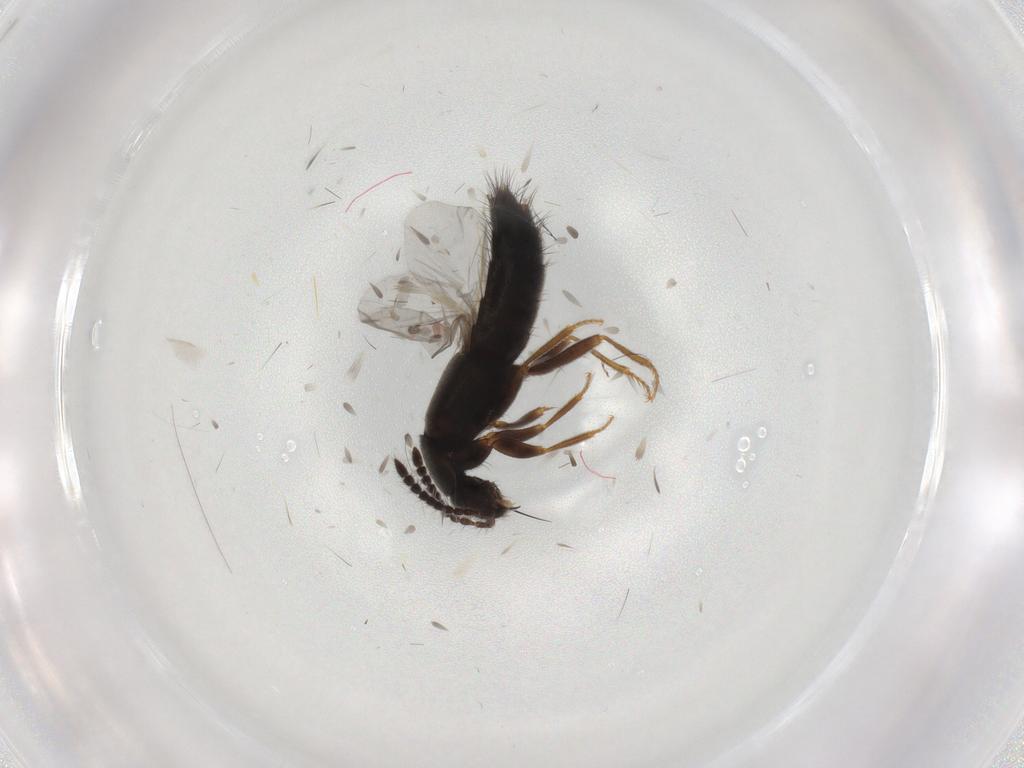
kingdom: Animalia
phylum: Arthropoda
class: Insecta
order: Coleoptera
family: Staphylinidae
